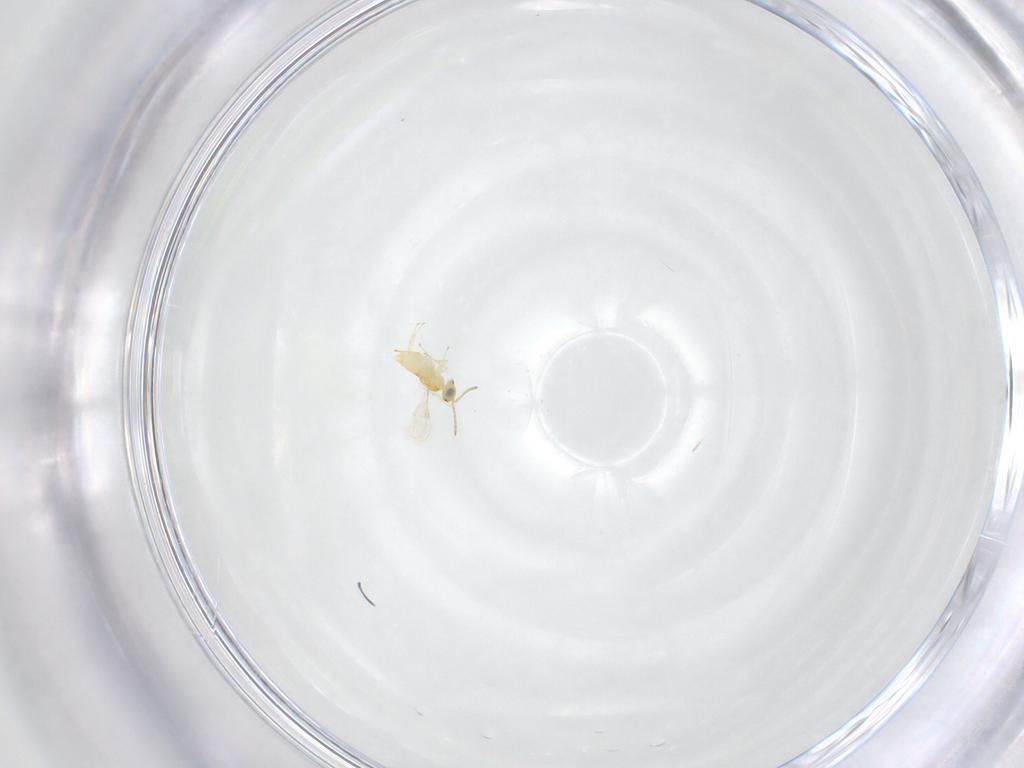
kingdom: Animalia
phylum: Arthropoda
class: Insecta
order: Hymenoptera
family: Aphelinidae
